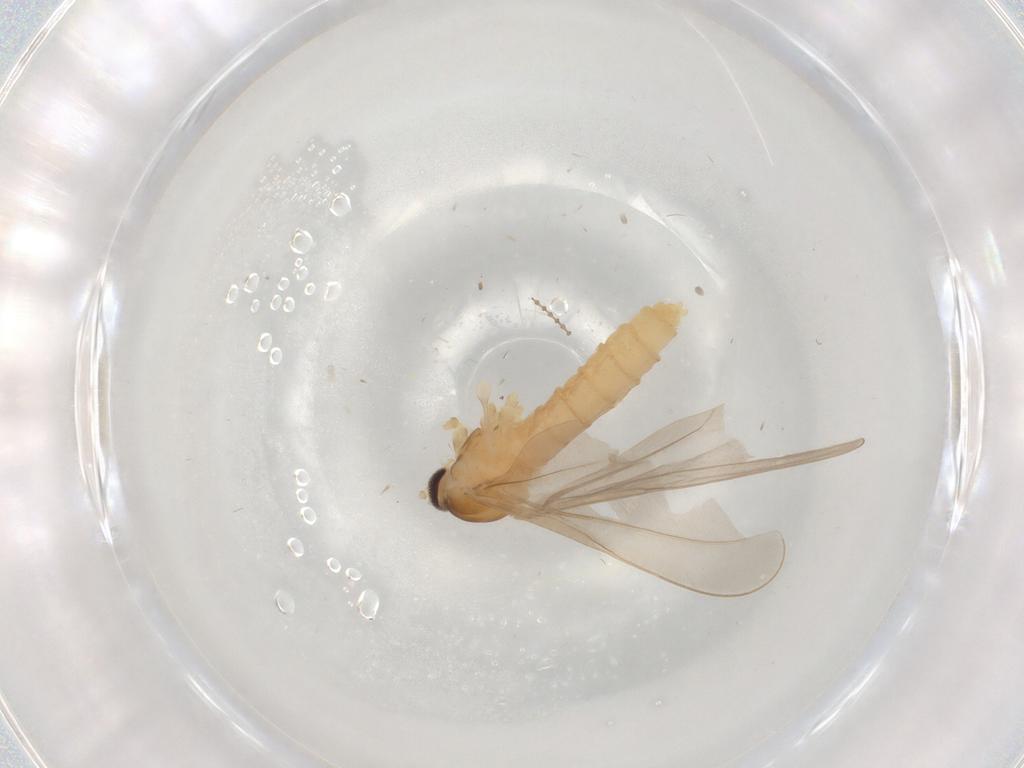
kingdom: Animalia
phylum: Arthropoda
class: Insecta
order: Diptera
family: Cecidomyiidae
